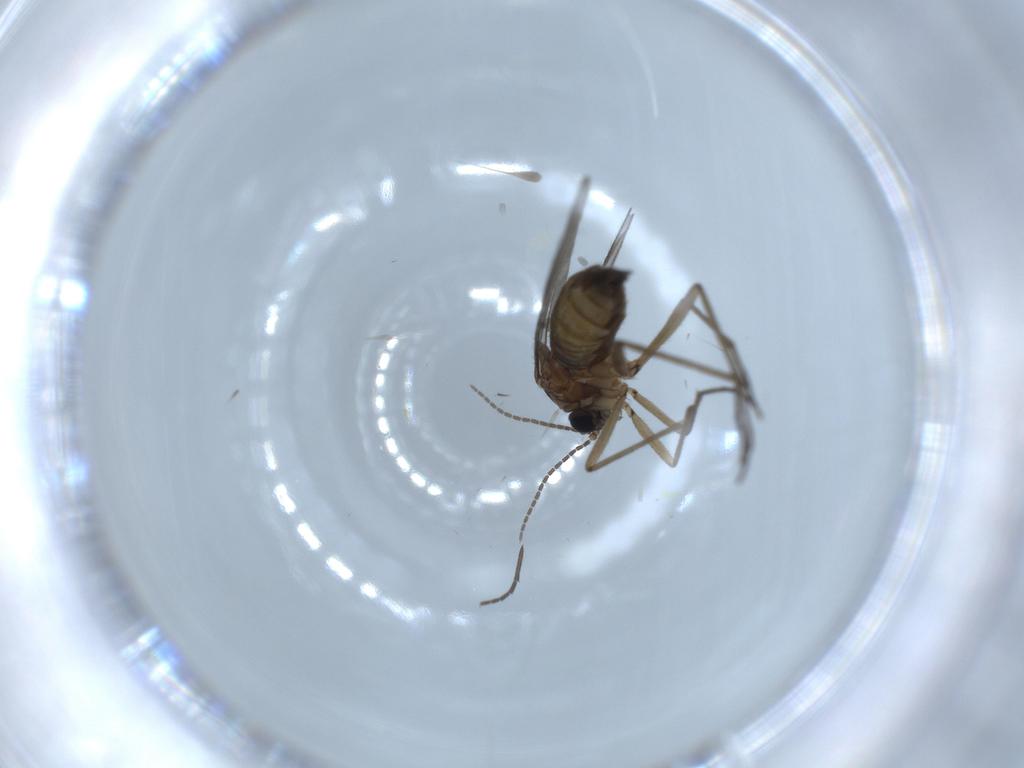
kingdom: Animalia
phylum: Arthropoda
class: Insecta
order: Diptera
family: Sciaridae
